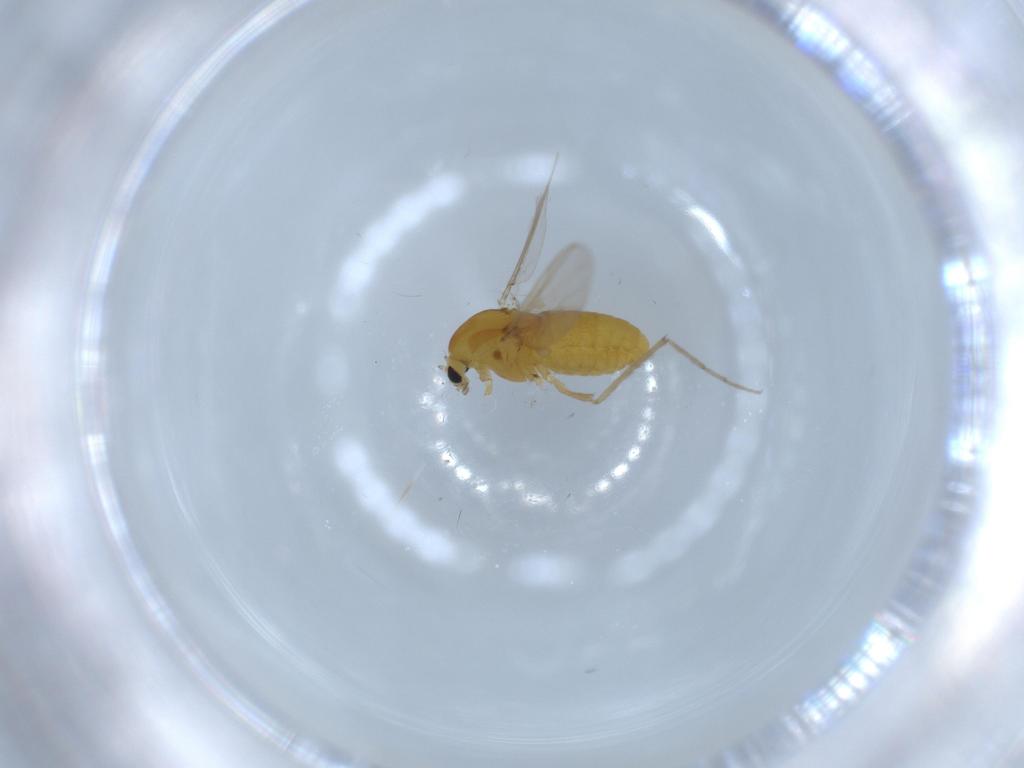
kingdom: Animalia
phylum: Arthropoda
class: Insecta
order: Diptera
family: Chironomidae
